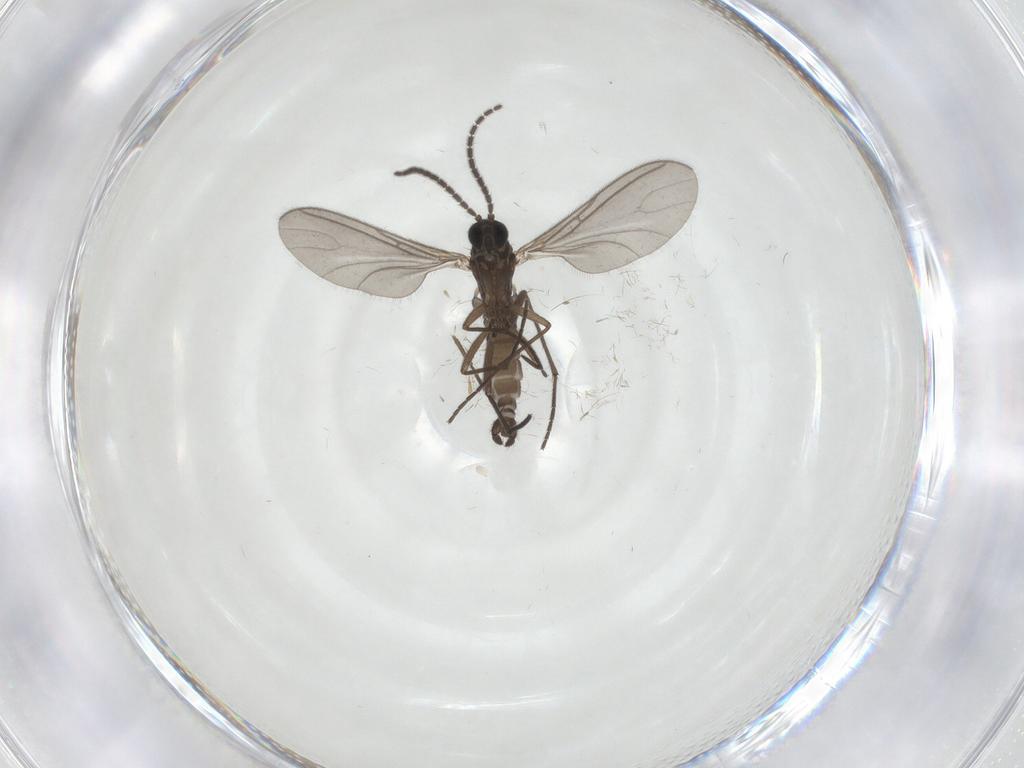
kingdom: Animalia
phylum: Arthropoda
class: Insecta
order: Diptera
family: Sciaridae
